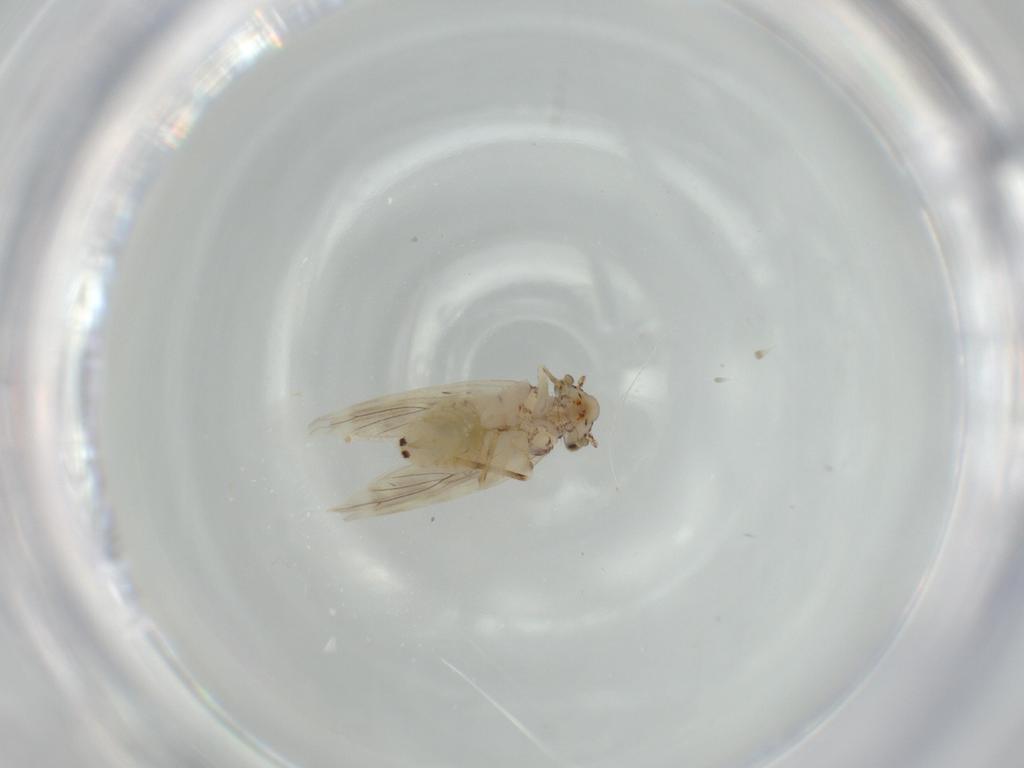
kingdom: Animalia
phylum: Arthropoda
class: Insecta
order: Psocodea
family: Lepidopsocidae
